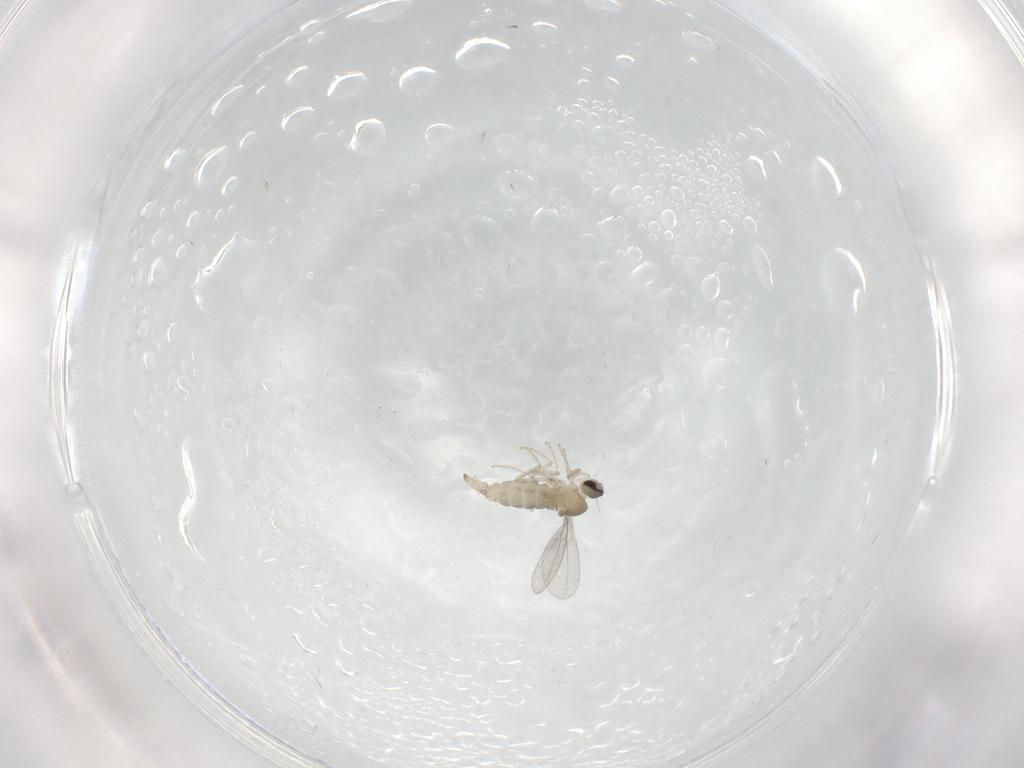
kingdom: Animalia
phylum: Arthropoda
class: Insecta
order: Diptera
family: Cecidomyiidae
